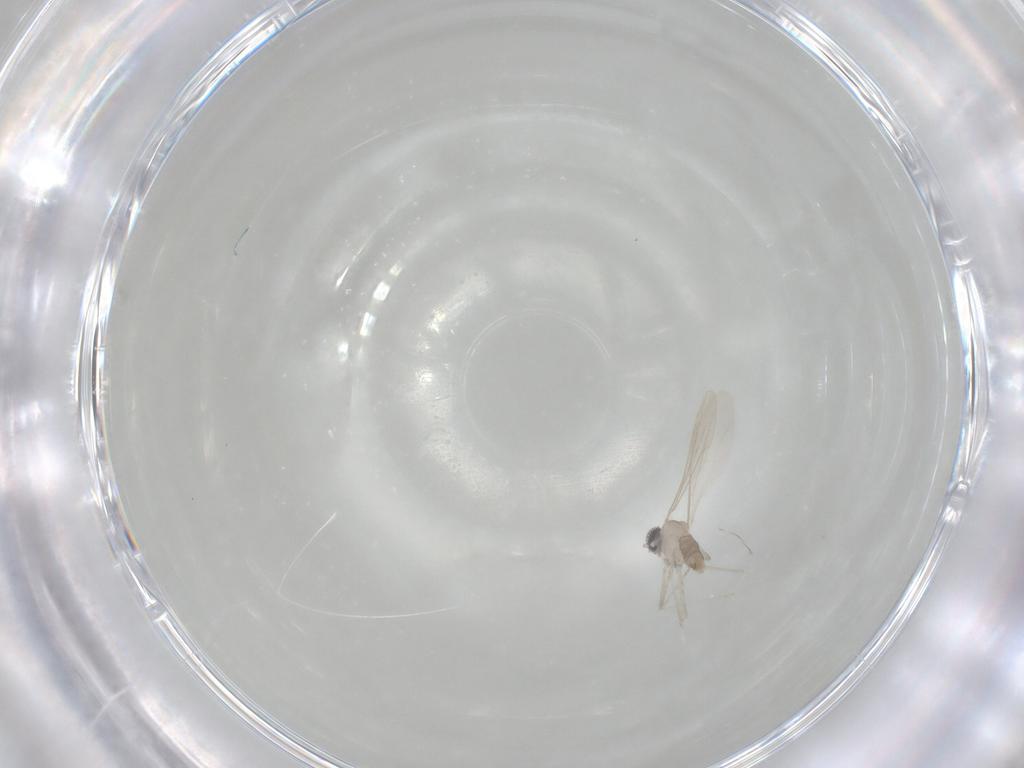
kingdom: Animalia
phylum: Arthropoda
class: Insecta
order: Diptera
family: Cecidomyiidae
